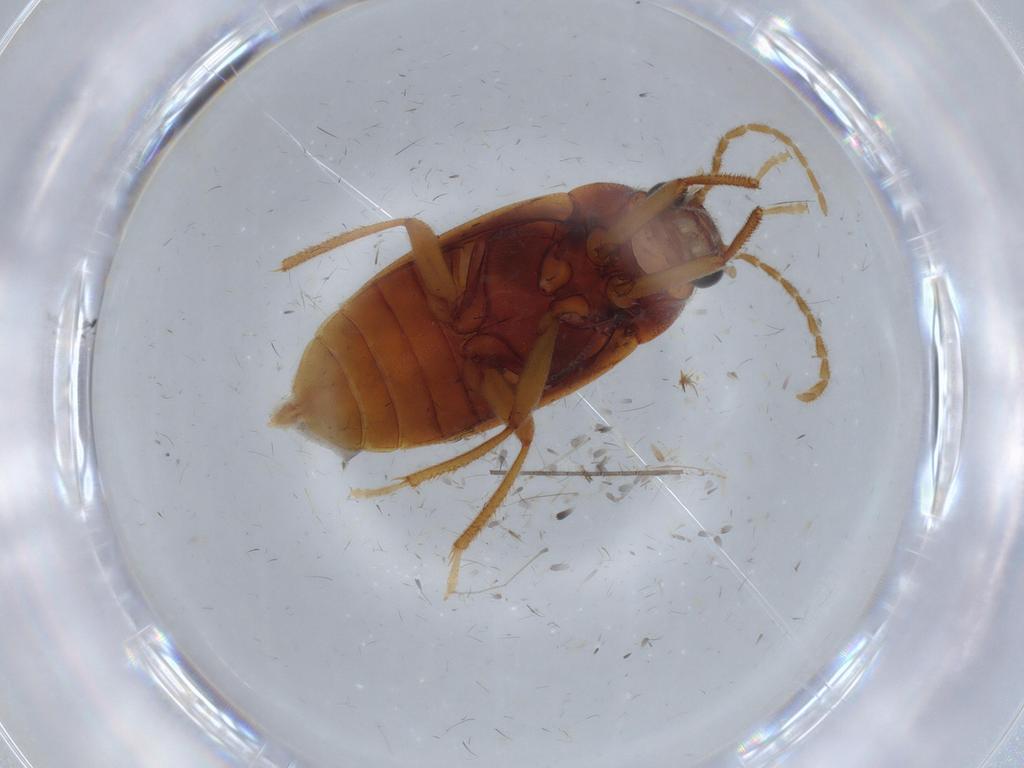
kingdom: Animalia
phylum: Arthropoda
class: Insecta
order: Coleoptera
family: Ptilodactylidae
